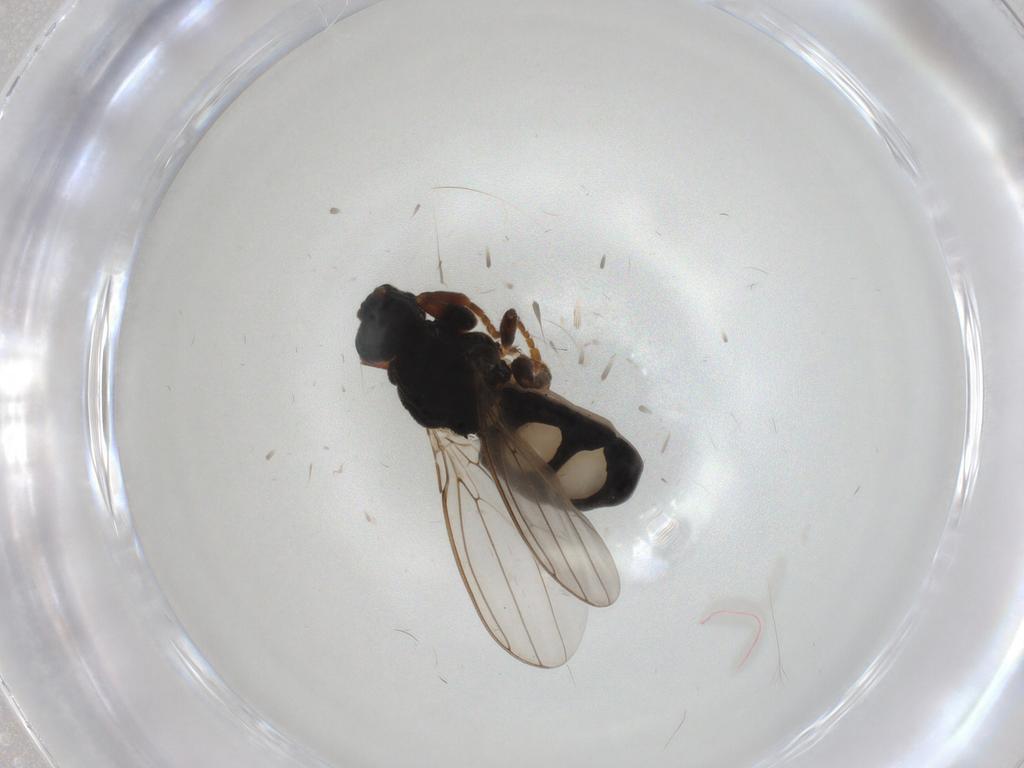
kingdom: Animalia
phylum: Arthropoda
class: Insecta
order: Diptera
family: Sphaeroceridae
